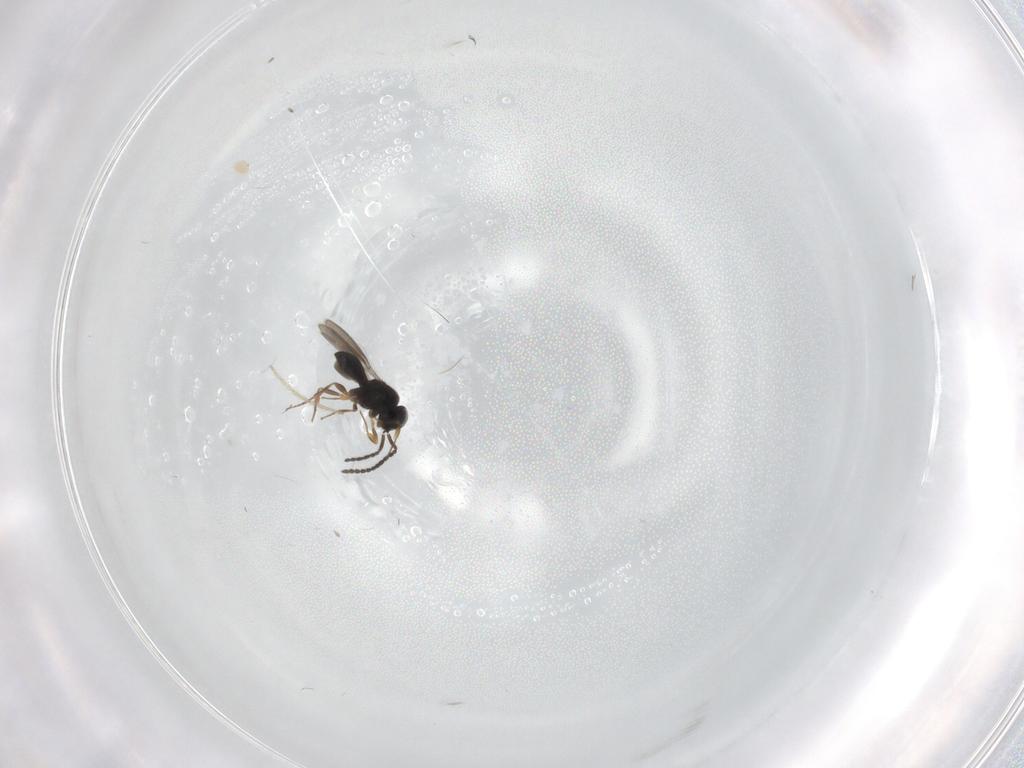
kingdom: Animalia
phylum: Arthropoda
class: Insecta
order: Hymenoptera
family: Scelionidae
